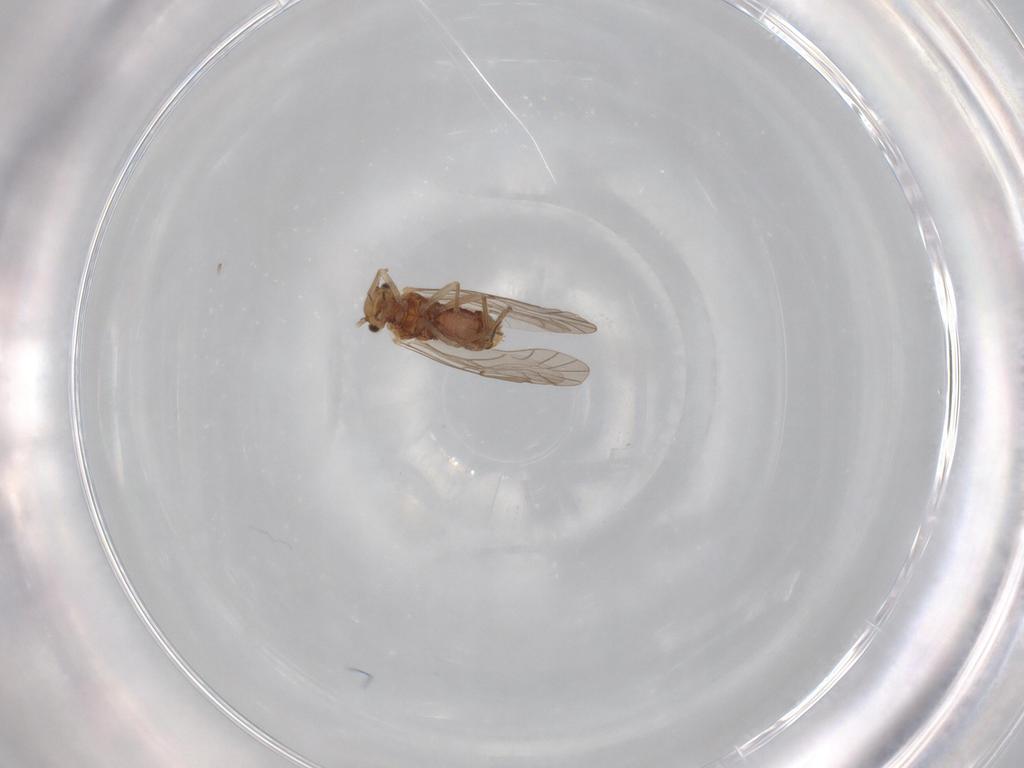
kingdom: Animalia
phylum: Arthropoda
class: Insecta
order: Psocodea
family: Lachesillidae
